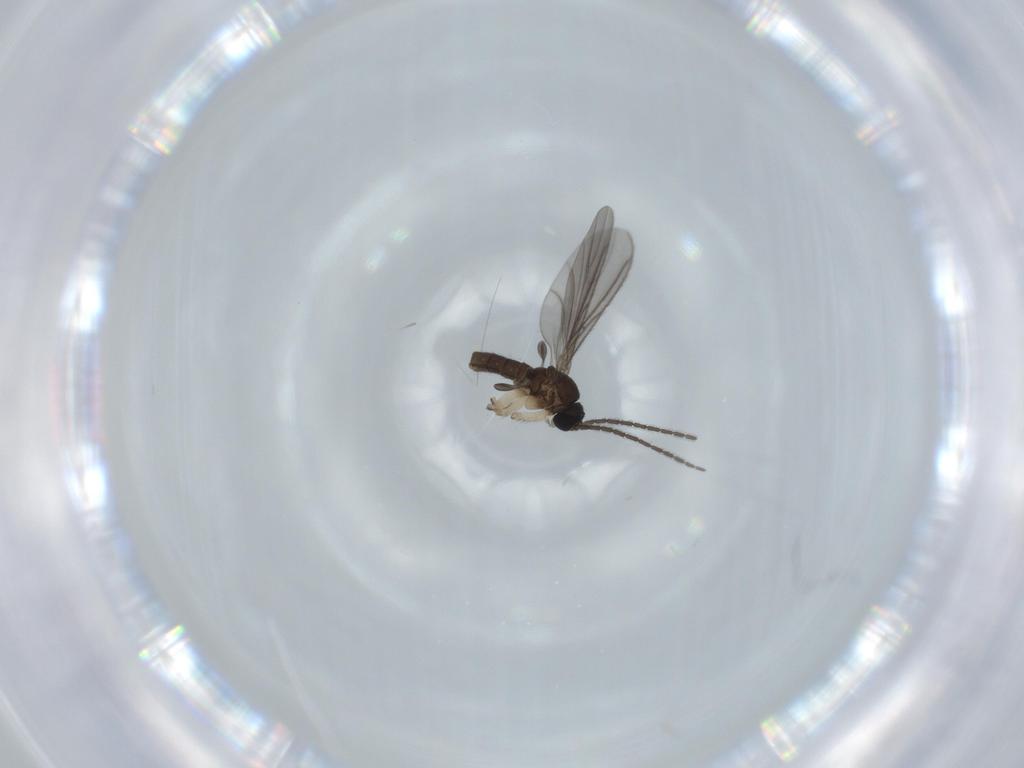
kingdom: Animalia
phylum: Arthropoda
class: Insecta
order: Diptera
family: Sciaridae
